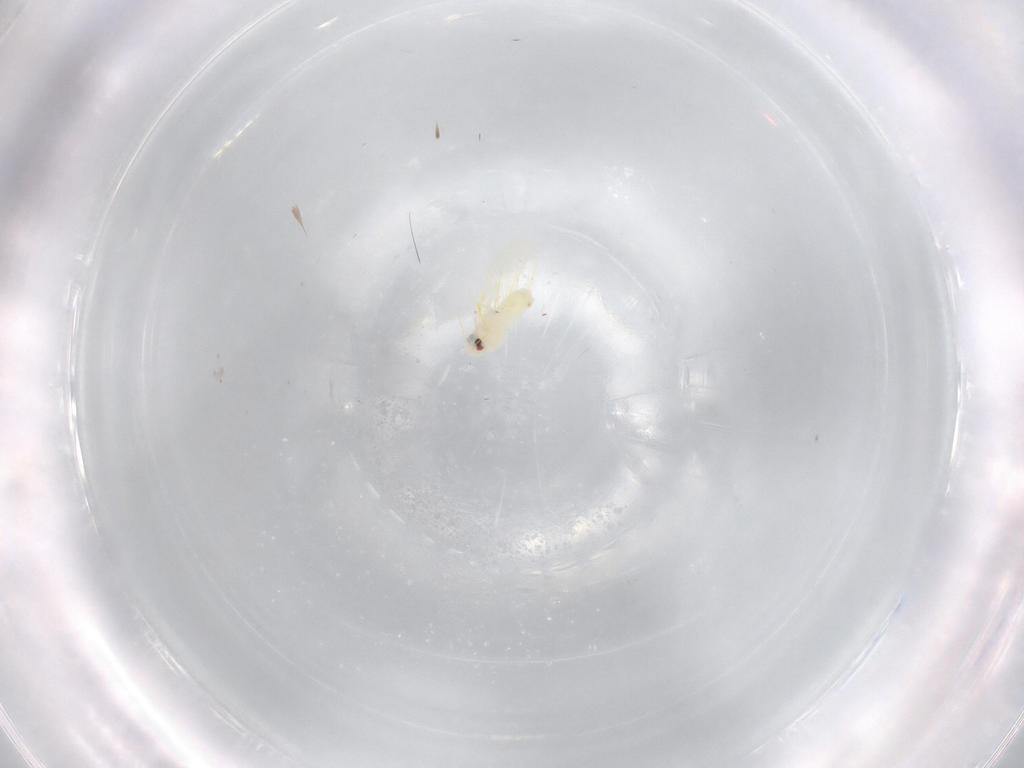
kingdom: Animalia
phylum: Arthropoda
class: Insecta
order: Hemiptera
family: Aleyrodidae
